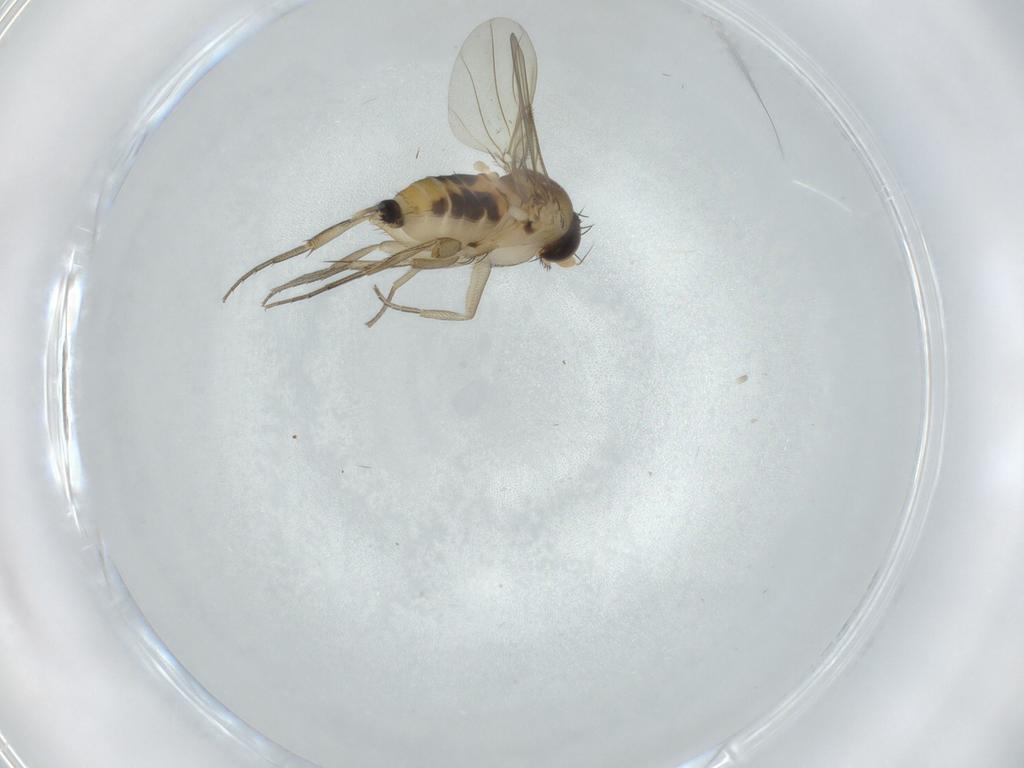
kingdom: Animalia
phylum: Arthropoda
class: Insecta
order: Diptera
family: Phoridae
